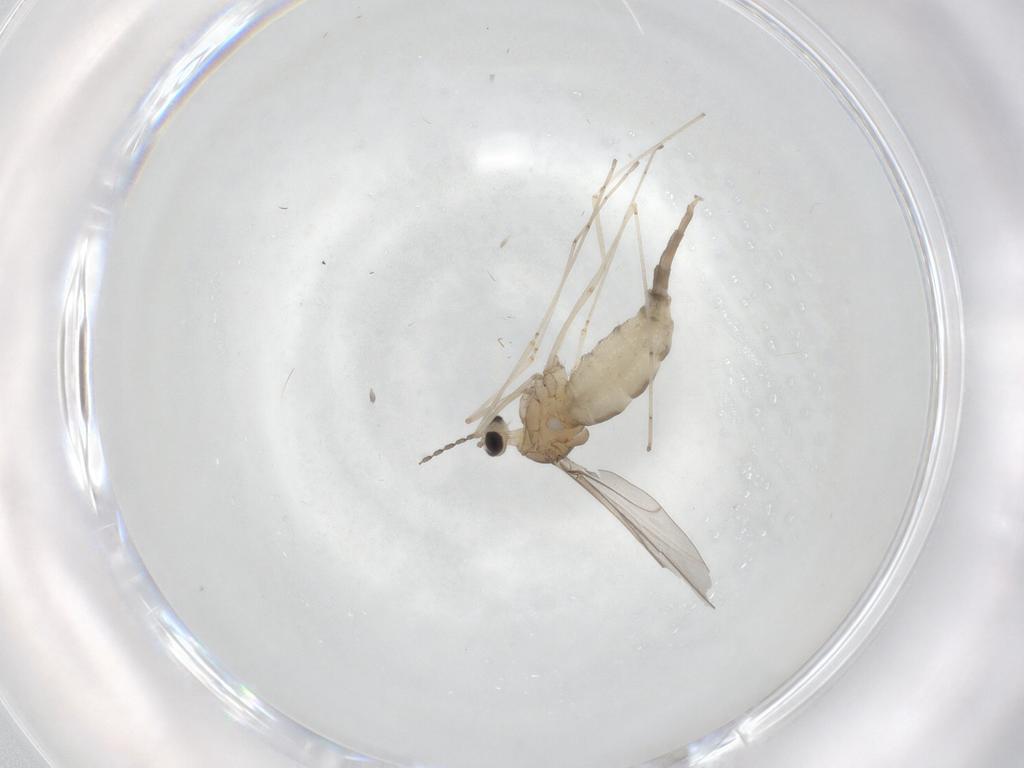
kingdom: Animalia
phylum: Arthropoda
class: Insecta
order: Diptera
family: Cecidomyiidae
